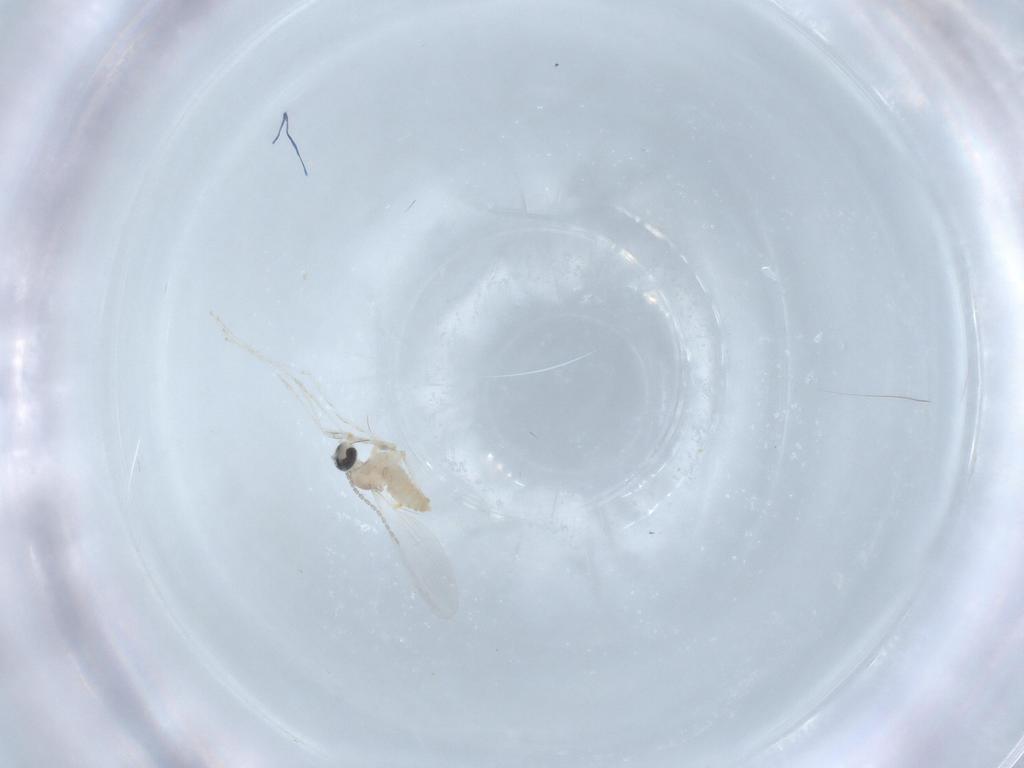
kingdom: Animalia
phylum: Arthropoda
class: Insecta
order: Diptera
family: Cecidomyiidae
